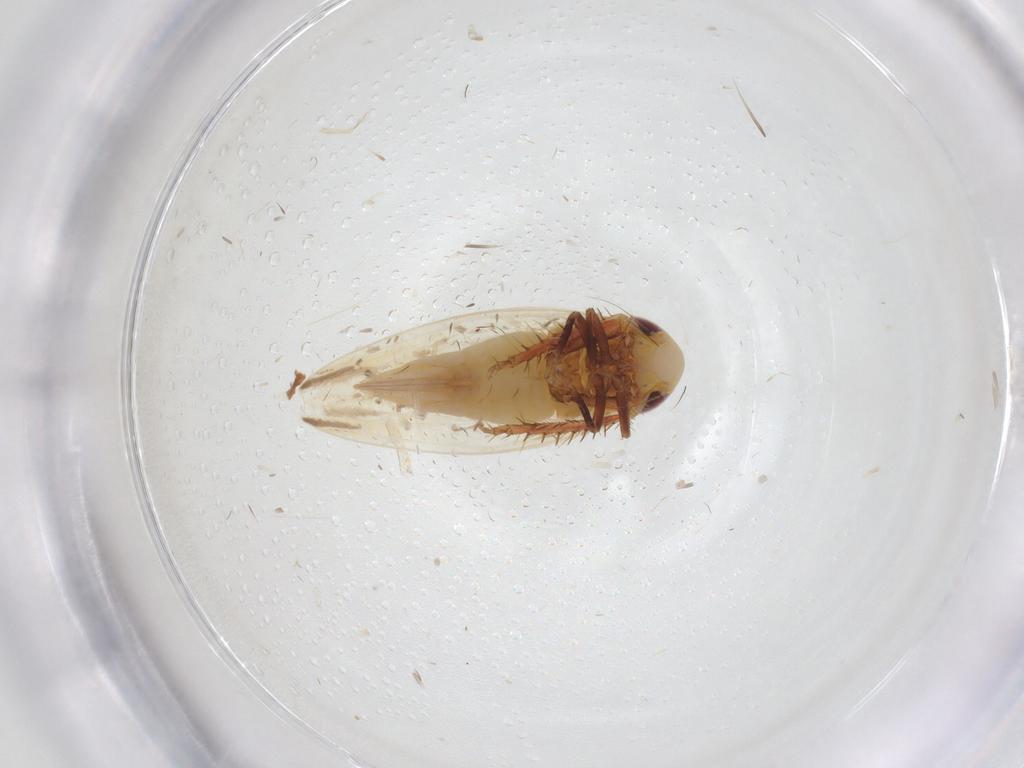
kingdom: Animalia
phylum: Arthropoda
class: Insecta
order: Hemiptera
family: Cicadellidae
